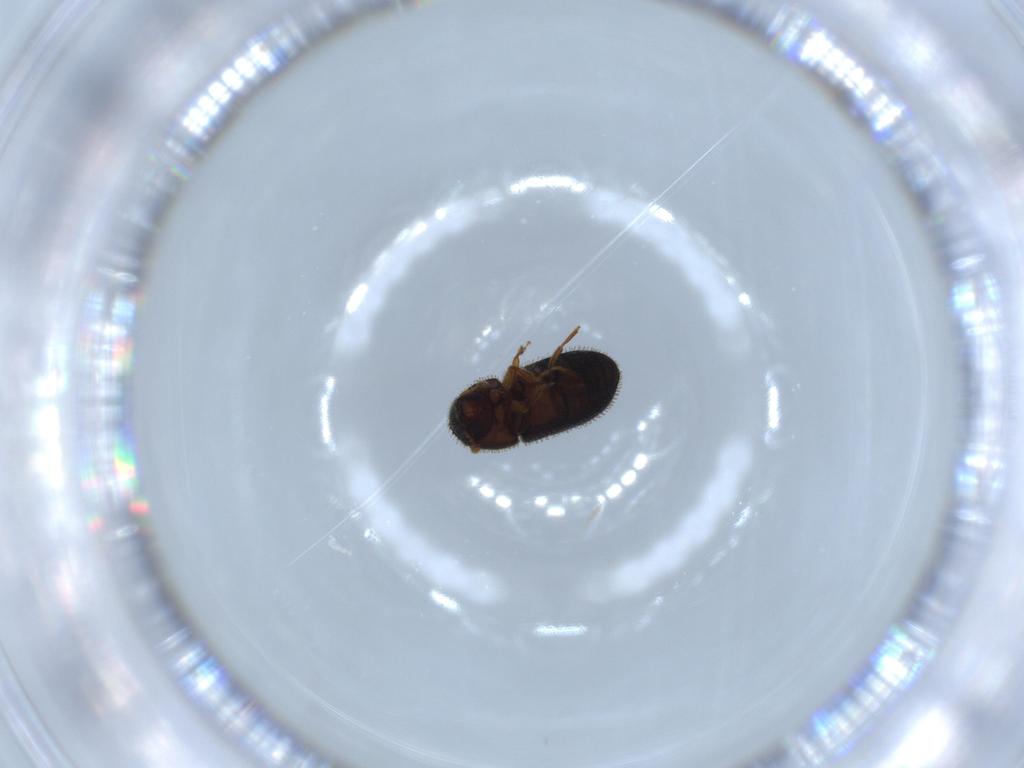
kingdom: Animalia
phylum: Arthropoda
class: Insecta
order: Coleoptera
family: Curculionidae
